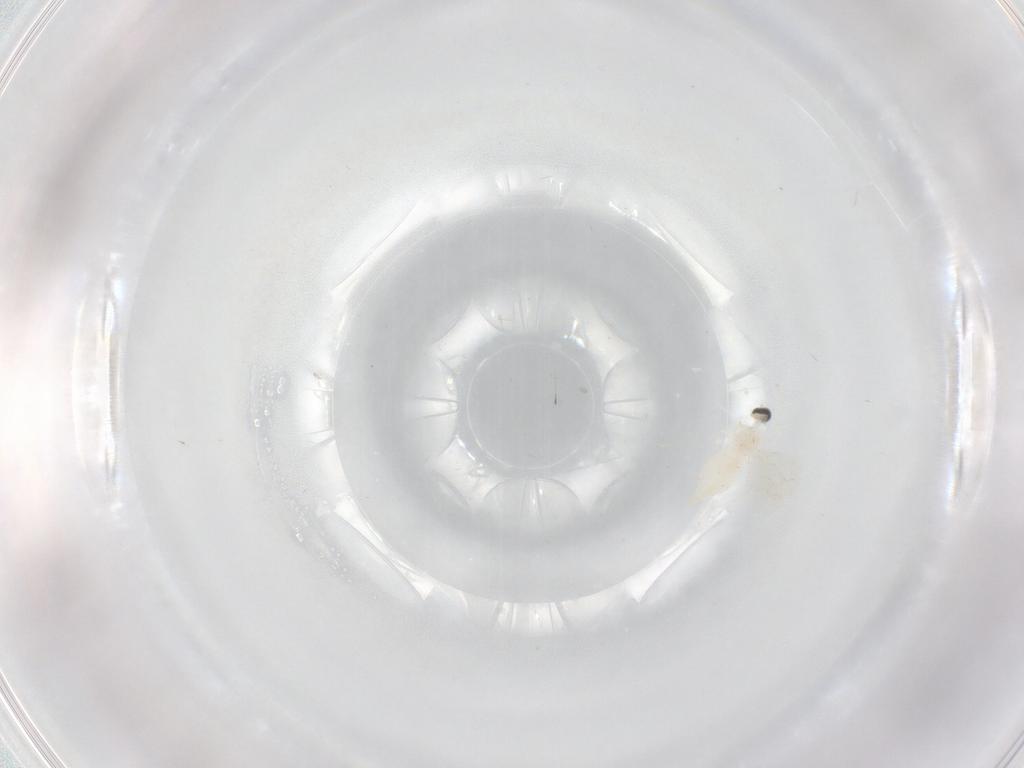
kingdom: Animalia
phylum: Arthropoda
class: Insecta
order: Diptera
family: Cecidomyiidae
